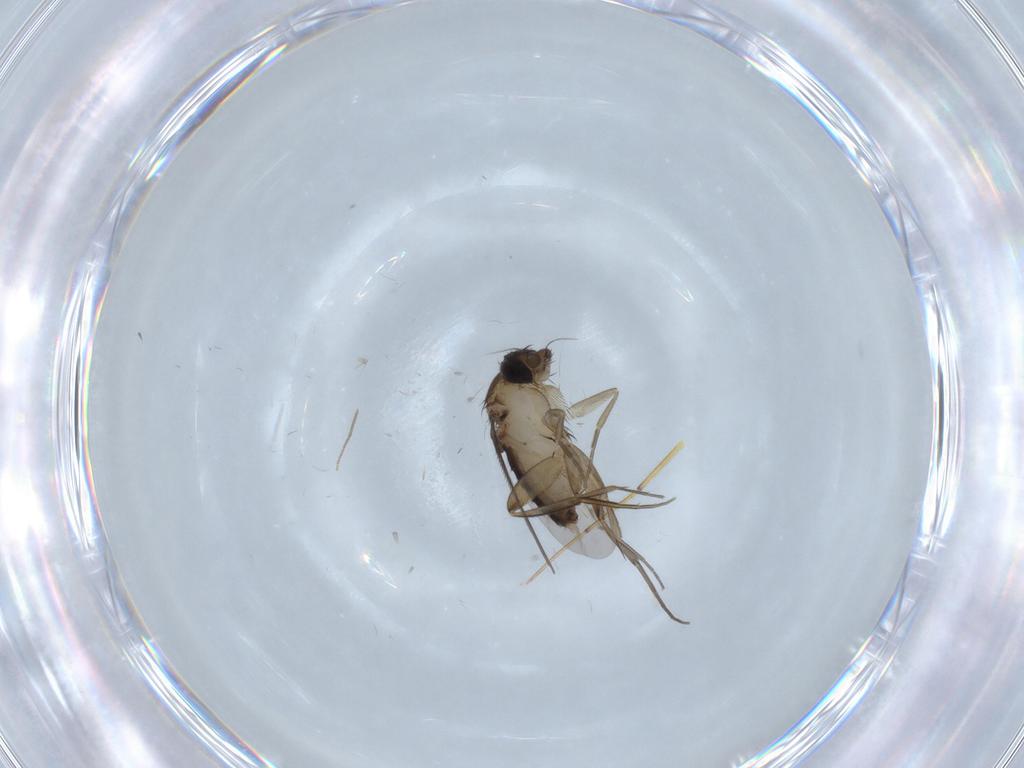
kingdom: Animalia
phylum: Arthropoda
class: Insecta
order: Diptera
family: Phoridae
